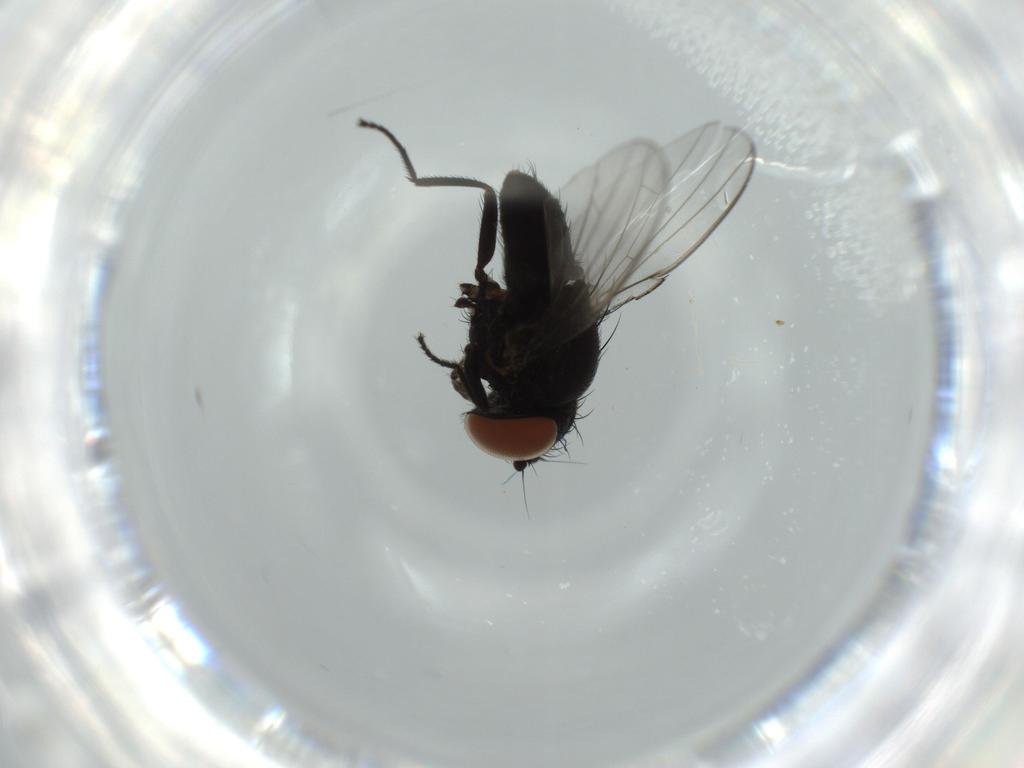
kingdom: Animalia
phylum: Arthropoda
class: Insecta
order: Diptera
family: Milichiidae
